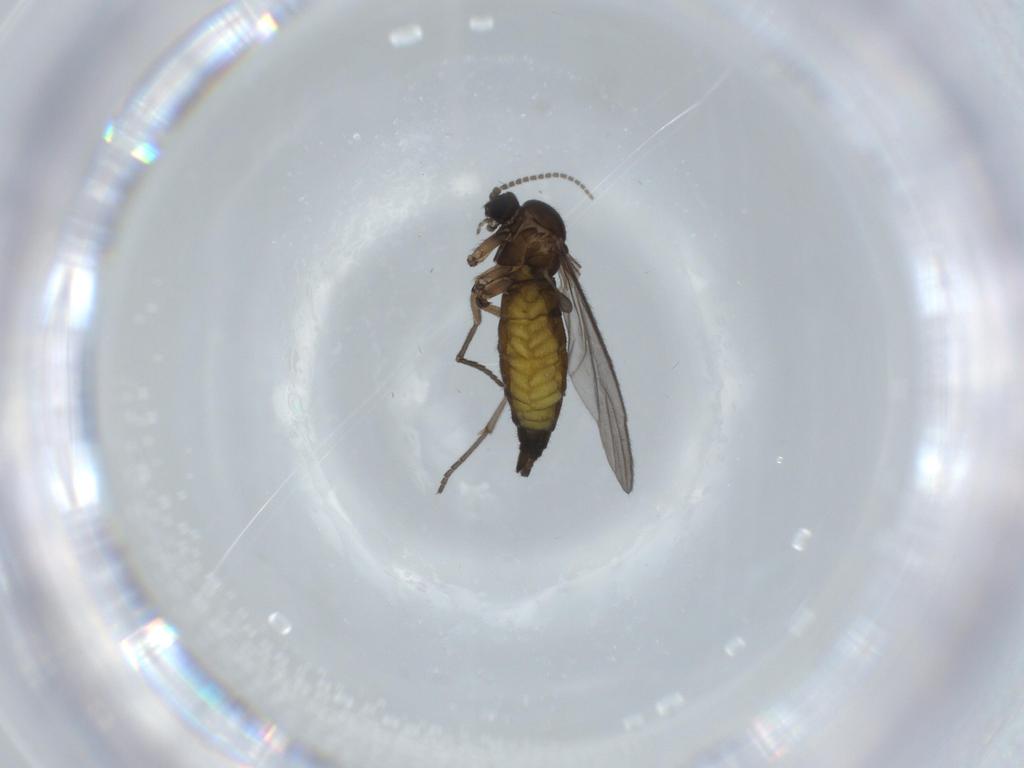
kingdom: Animalia
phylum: Arthropoda
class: Insecta
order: Diptera
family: Sciaridae
